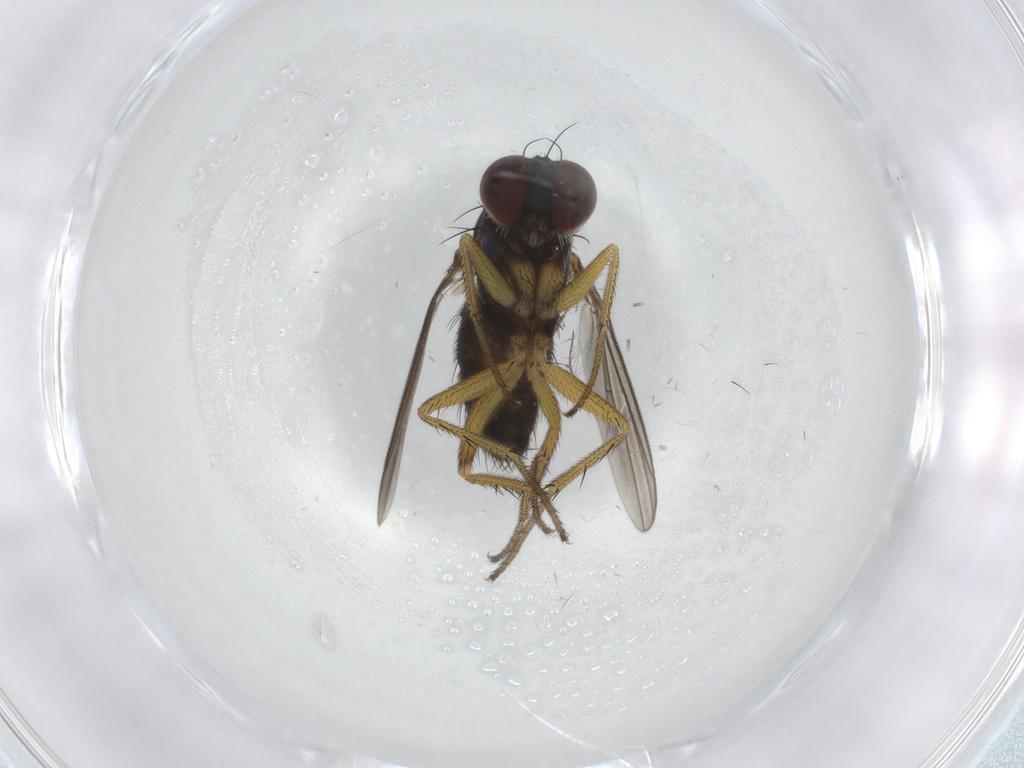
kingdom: Animalia
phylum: Arthropoda
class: Insecta
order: Diptera
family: Dolichopodidae
